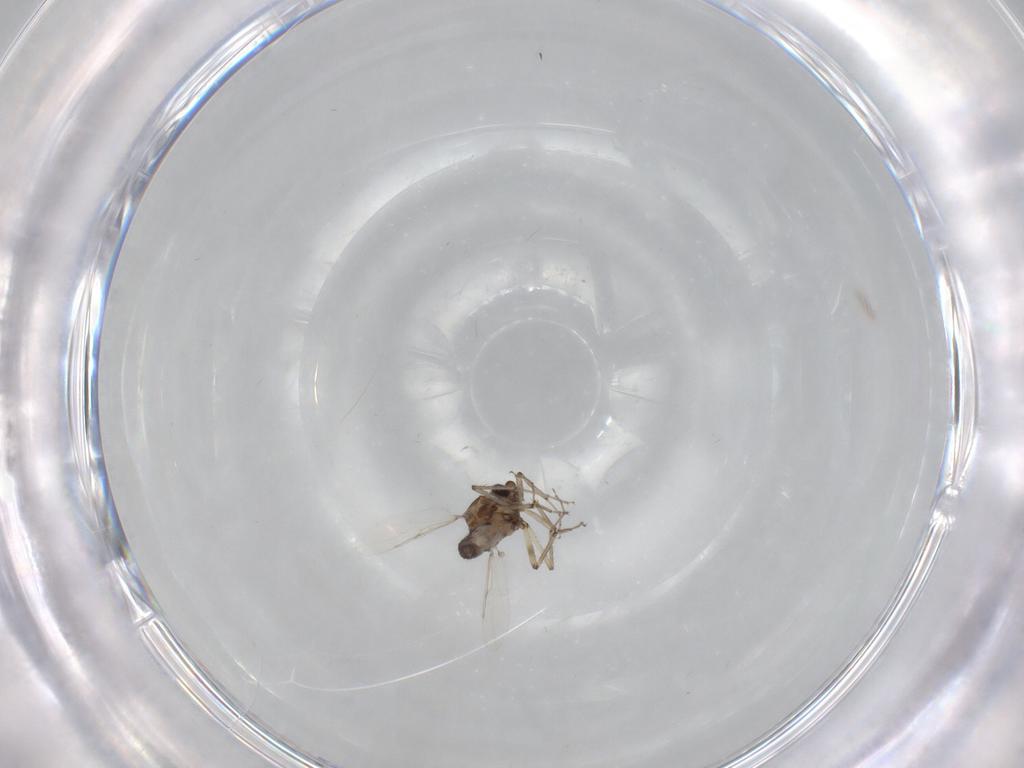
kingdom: Animalia
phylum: Arthropoda
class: Insecta
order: Diptera
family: Ceratopogonidae
